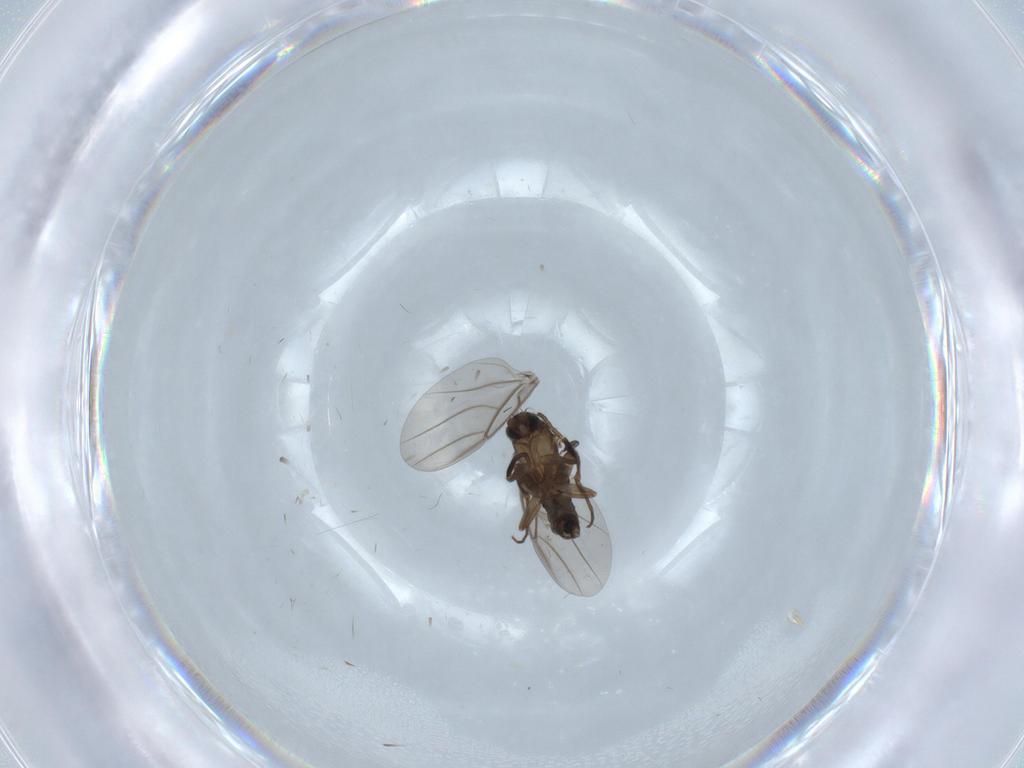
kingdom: Animalia
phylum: Arthropoda
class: Insecta
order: Diptera
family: Phoridae
